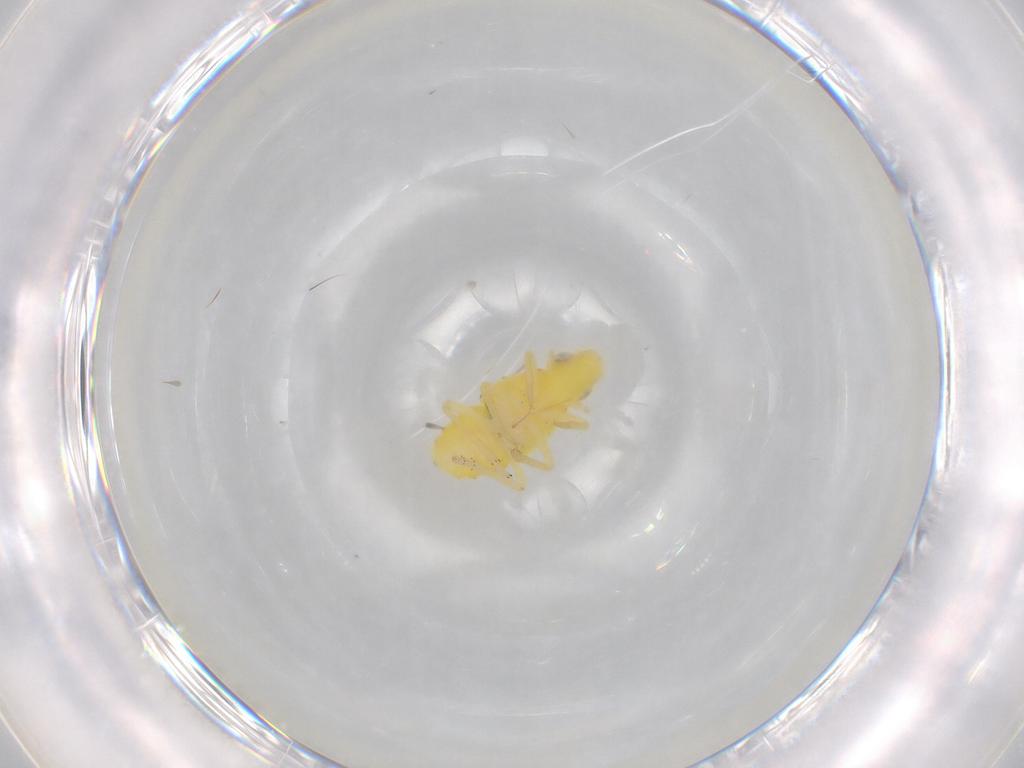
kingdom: Animalia
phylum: Arthropoda
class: Insecta
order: Hemiptera
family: Tropiduchidae
